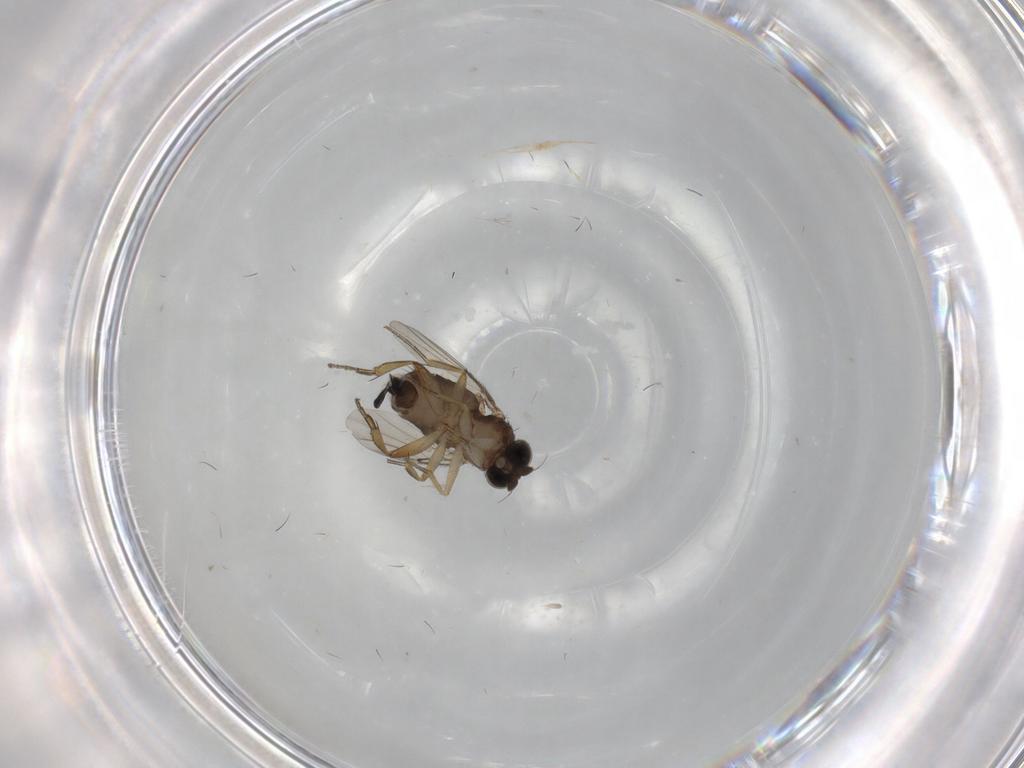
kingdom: Animalia
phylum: Arthropoda
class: Insecta
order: Diptera
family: Phoridae
